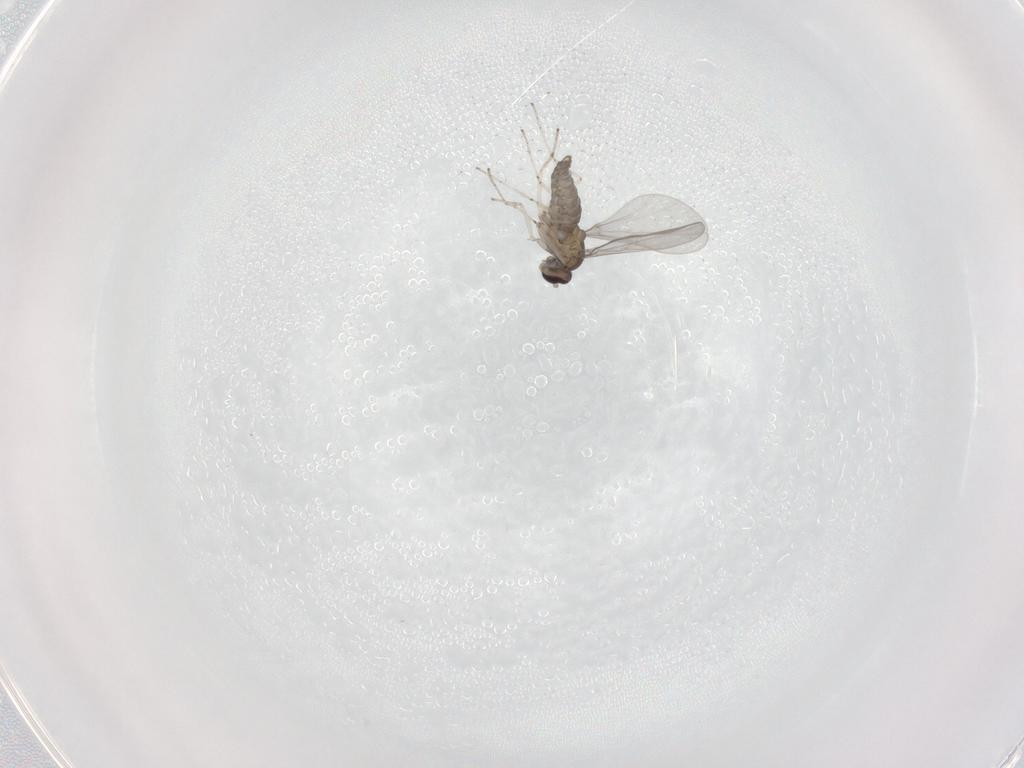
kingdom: Animalia
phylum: Arthropoda
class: Insecta
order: Diptera
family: Cecidomyiidae
